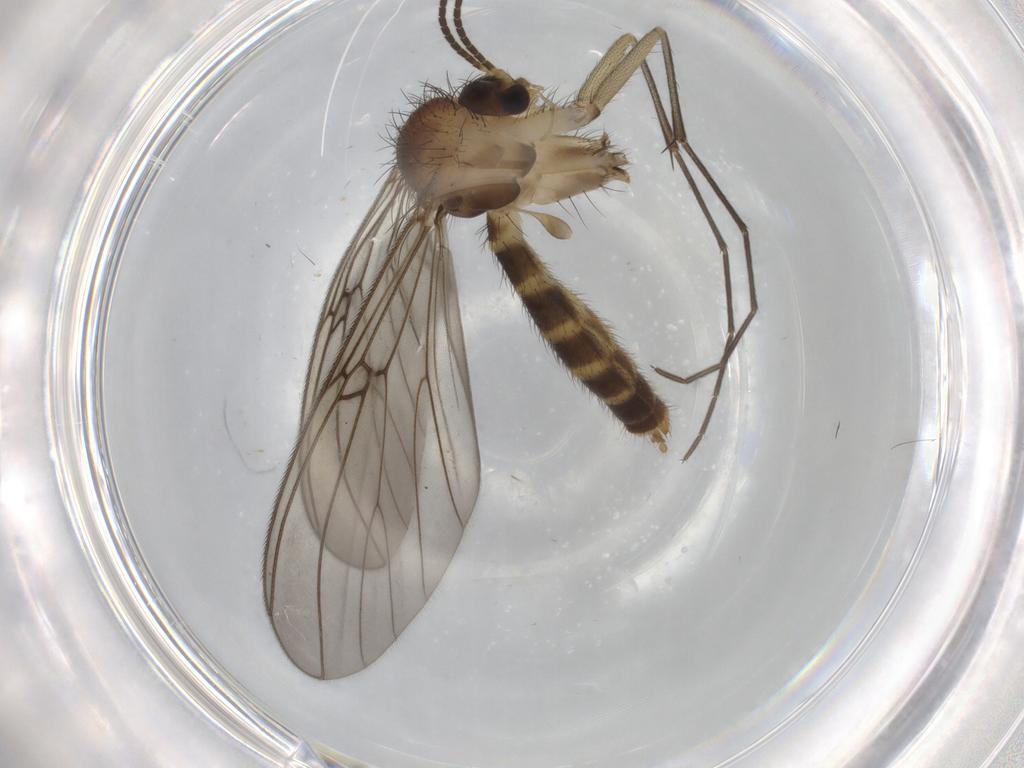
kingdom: Animalia
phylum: Arthropoda
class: Insecta
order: Diptera
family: Mycetophilidae
